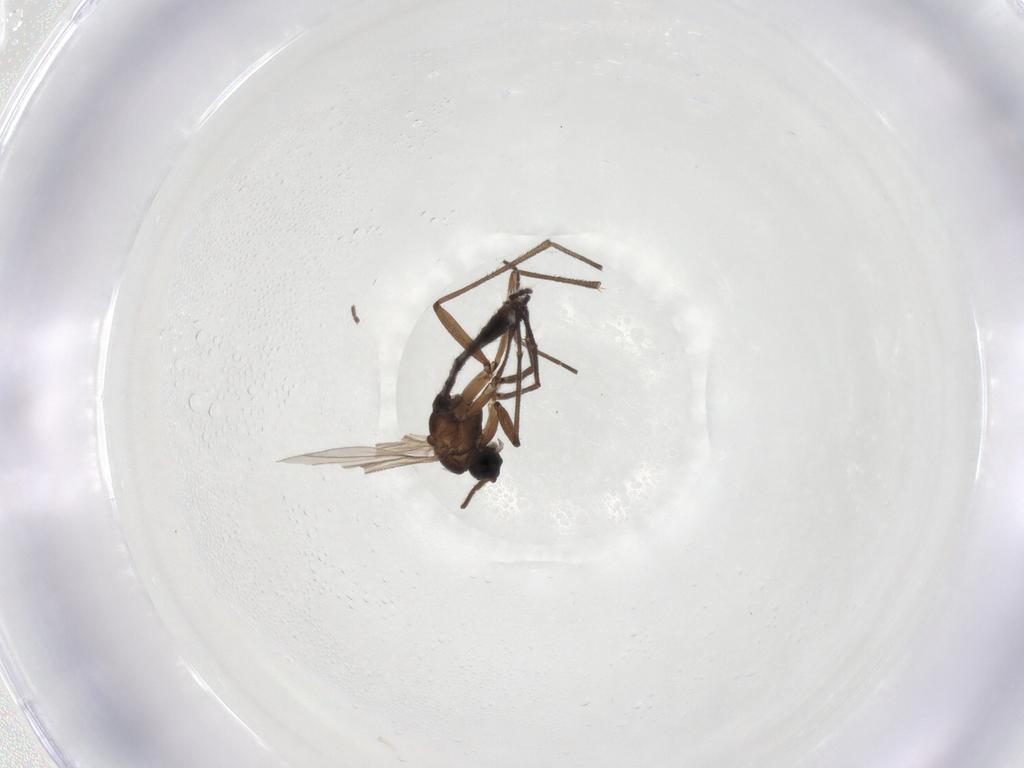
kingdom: Animalia
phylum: Arthropoda
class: Insecta
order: Diptera
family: Sciaridae
